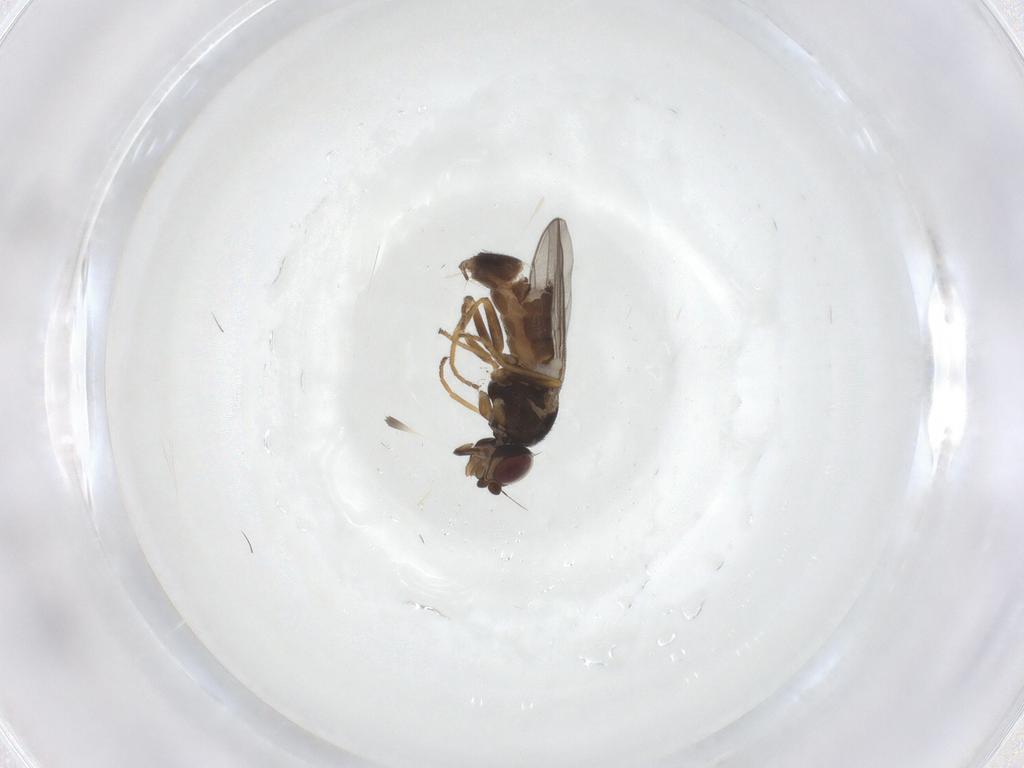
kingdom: Animalia
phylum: Arthropoda
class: Insecta
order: Diptera
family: Chloropidae
